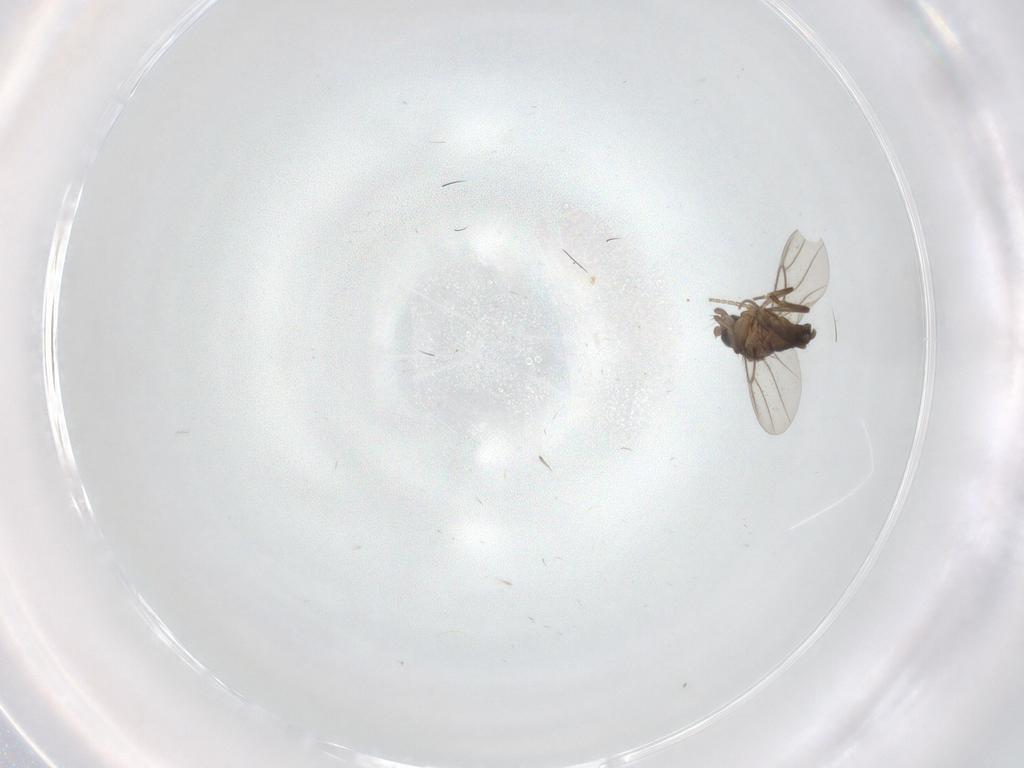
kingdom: Animalia
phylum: Arthropoda
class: Insecta
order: Diptera
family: Phoridae
